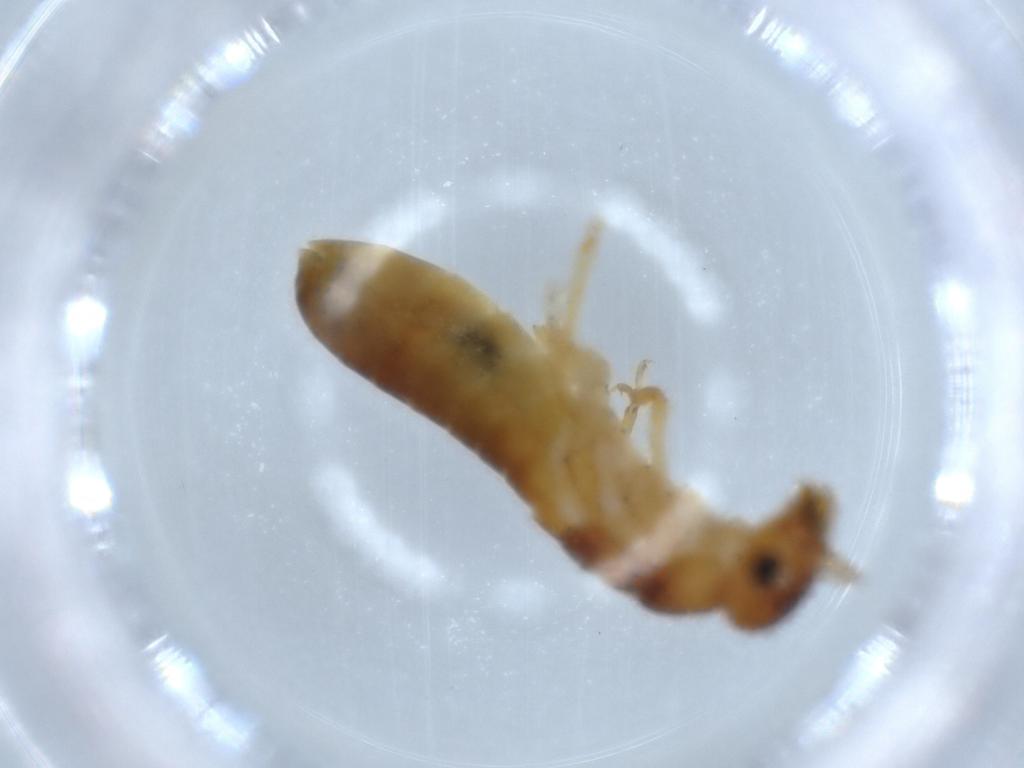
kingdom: Animalia
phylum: Arthropoda
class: Insecta
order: Blattodea
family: Kalotermitidae
